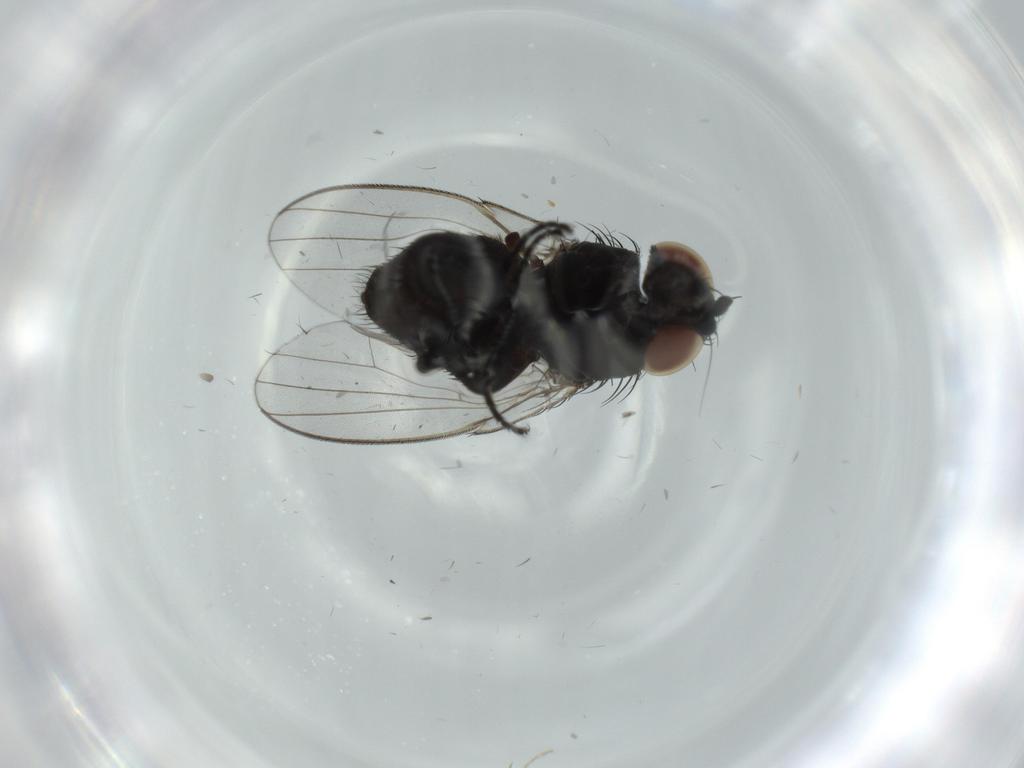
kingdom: Animalia
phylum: Arthropoda
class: Insecta
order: Diptera
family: Milichiidae
